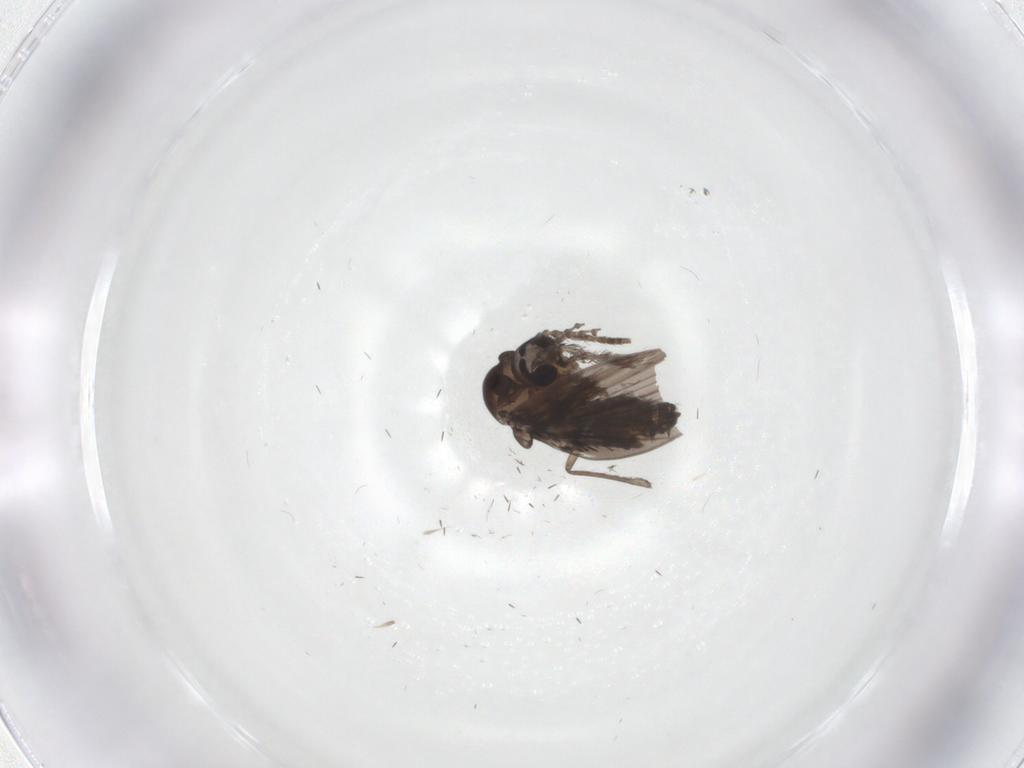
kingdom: Animalia
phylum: Arthropoda
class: Insecta
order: Diptera
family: Psychodidae
